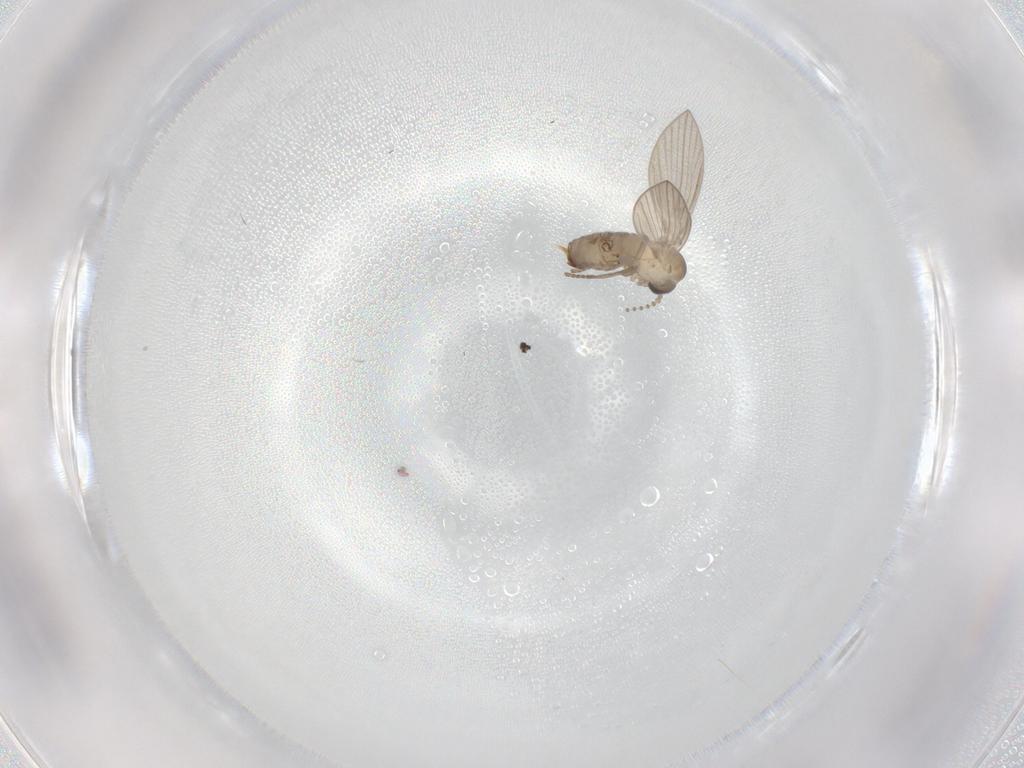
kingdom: Animalia
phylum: Arthropoda
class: Insecta
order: Diptera
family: Psychodidae
